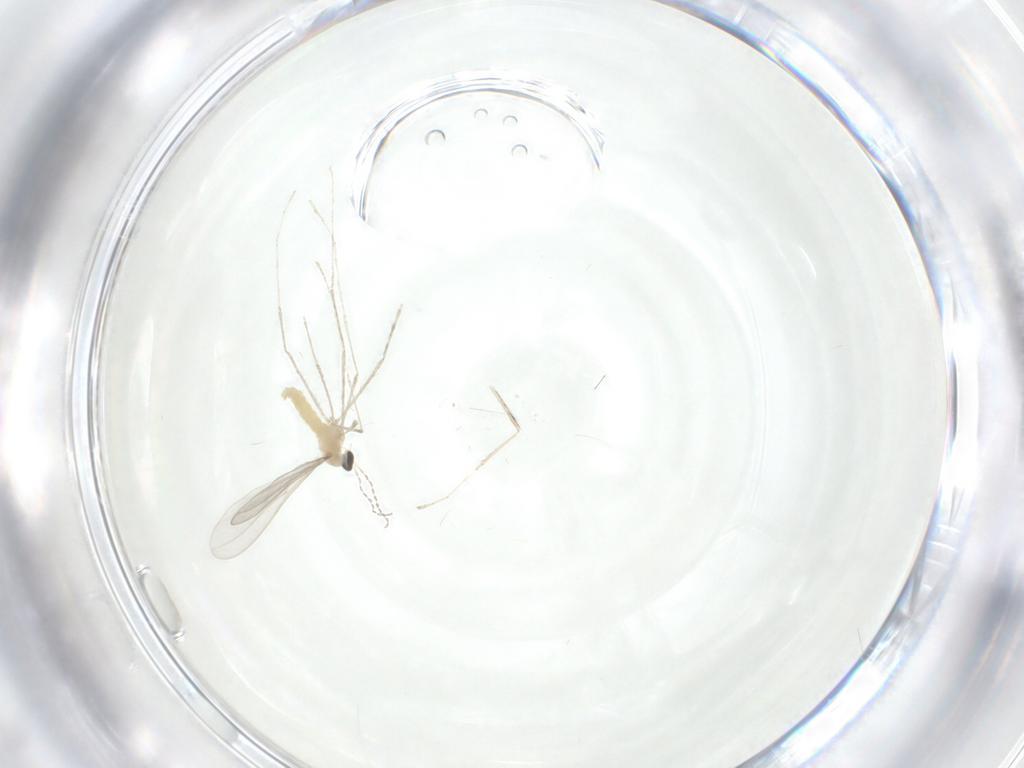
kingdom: Animalia
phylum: Arthropoda
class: Insecta
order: Diptera
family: Cecidomyiidae
